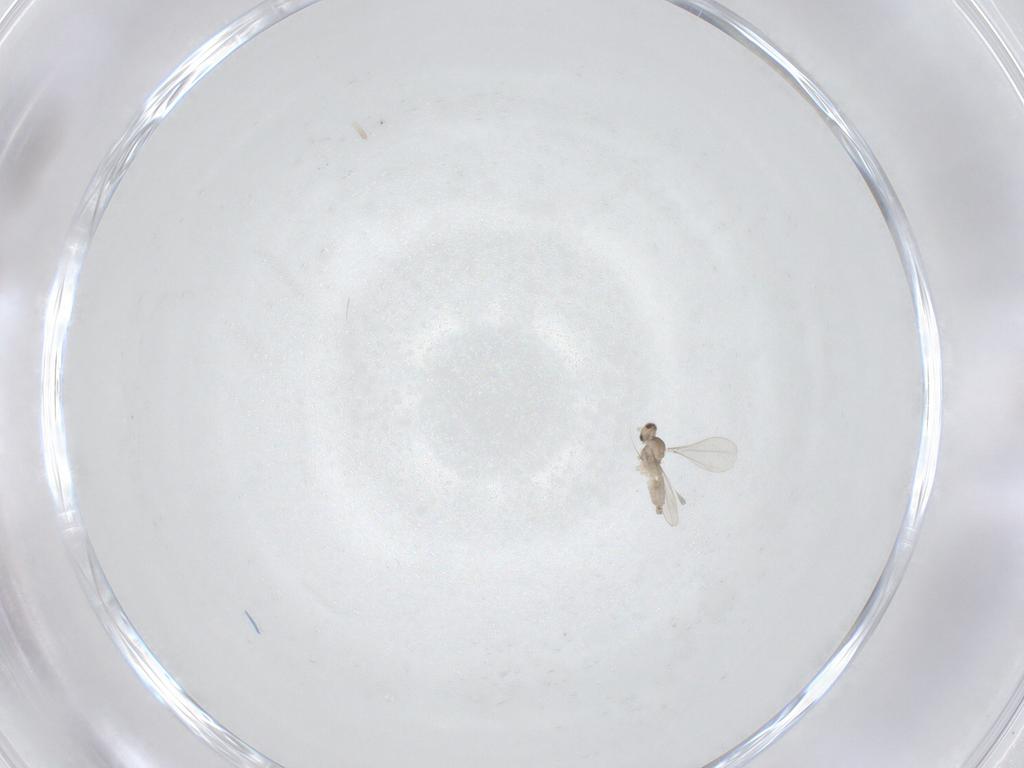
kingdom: Animalia
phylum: Arthropoda
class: Insecta
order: Diptera
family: Cecidomyiidae
